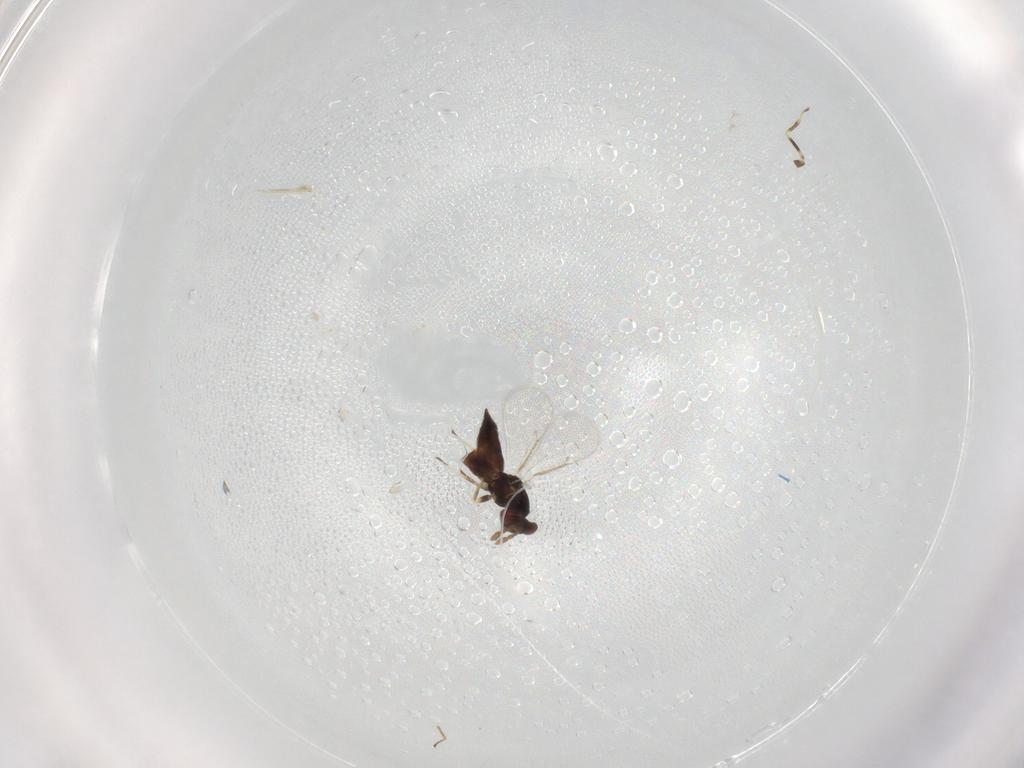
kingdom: Animalia
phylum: Arthropoda
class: Insecta
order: Hymenoptera
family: Eulophidae
